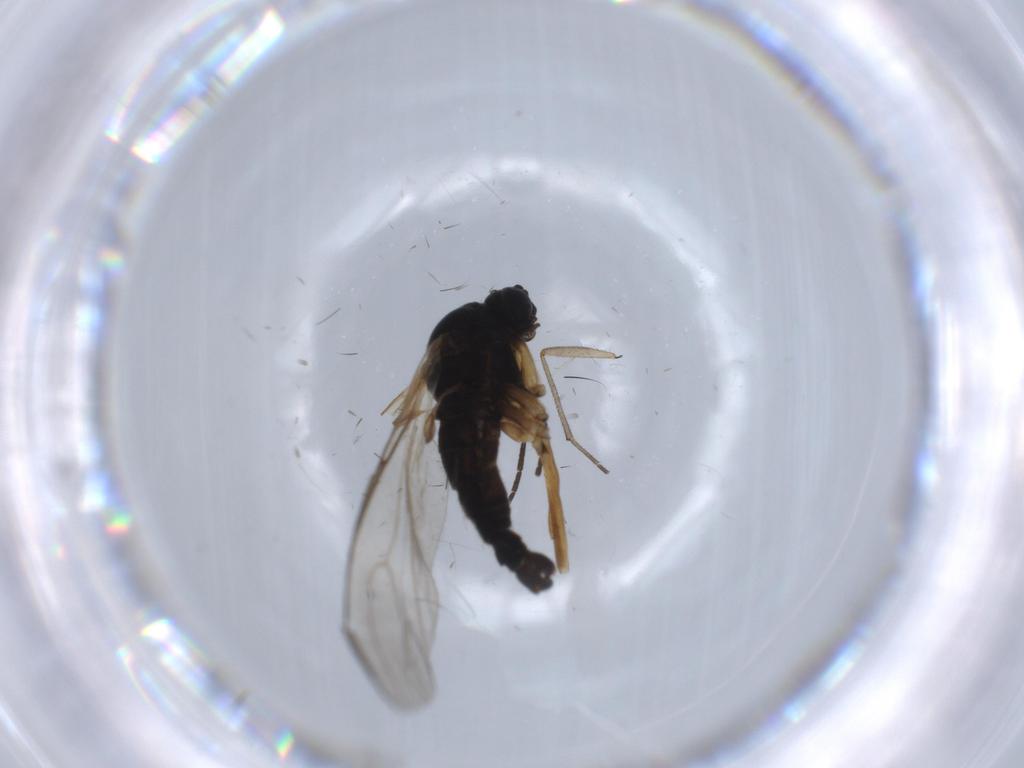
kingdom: Animalia
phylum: Arthropoda
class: Insecta
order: Diptera
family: Sciaridae
